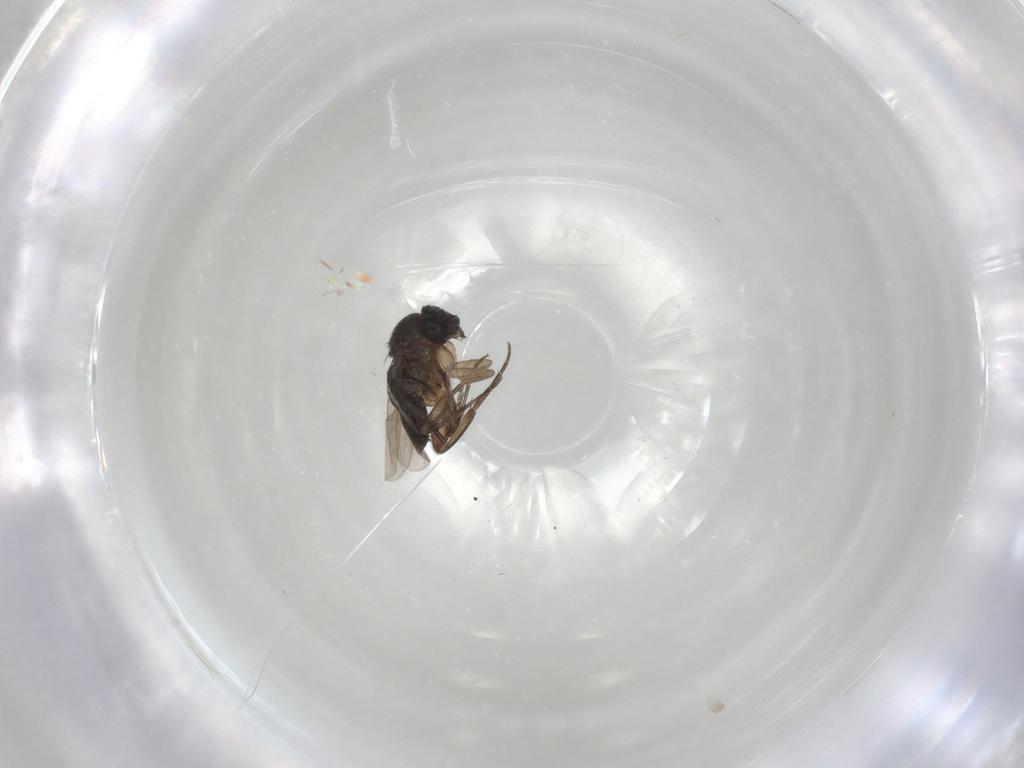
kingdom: Animalia
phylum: Arthropoda
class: Insecta
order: Diptera
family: Phoridae
